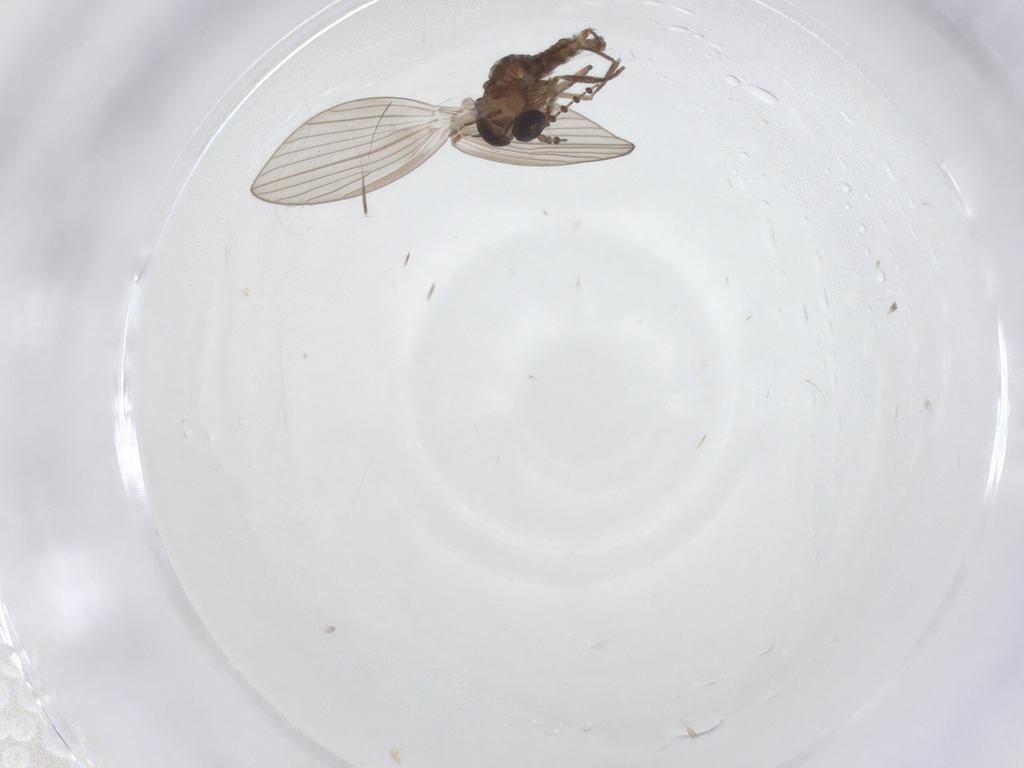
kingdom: Animalia
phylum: Arthropoda
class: Insecta
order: Diptera
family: Psychodidae
